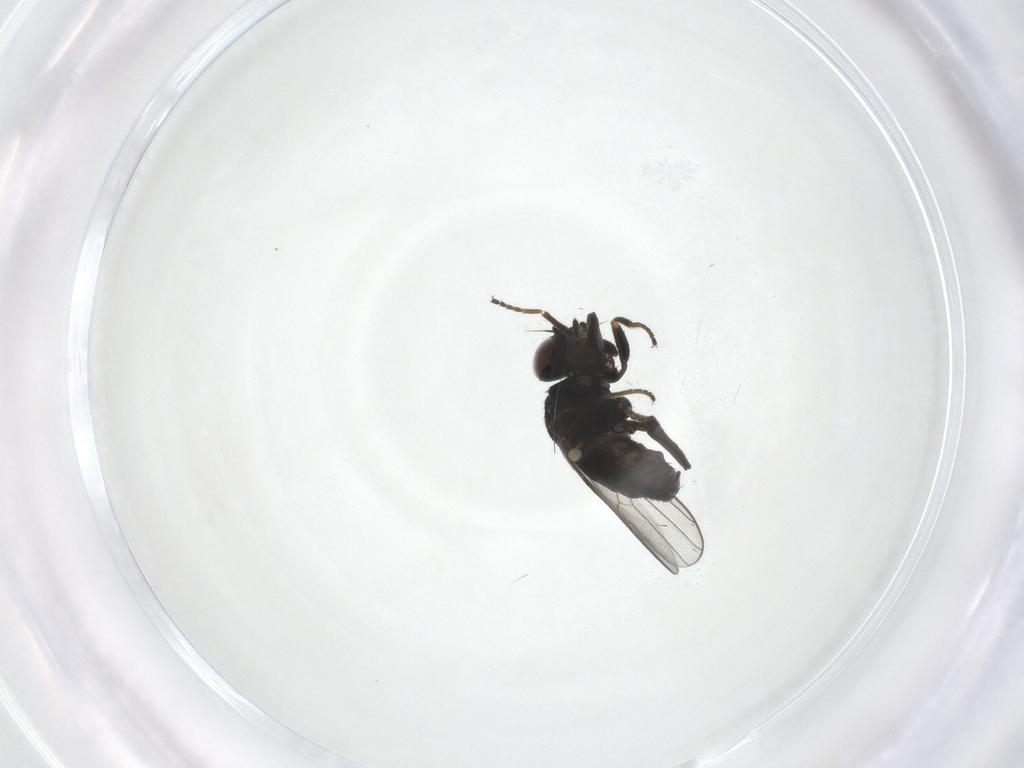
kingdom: Animalia
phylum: Arthropoda
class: Insecta
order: Diptera
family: Chloropidae
